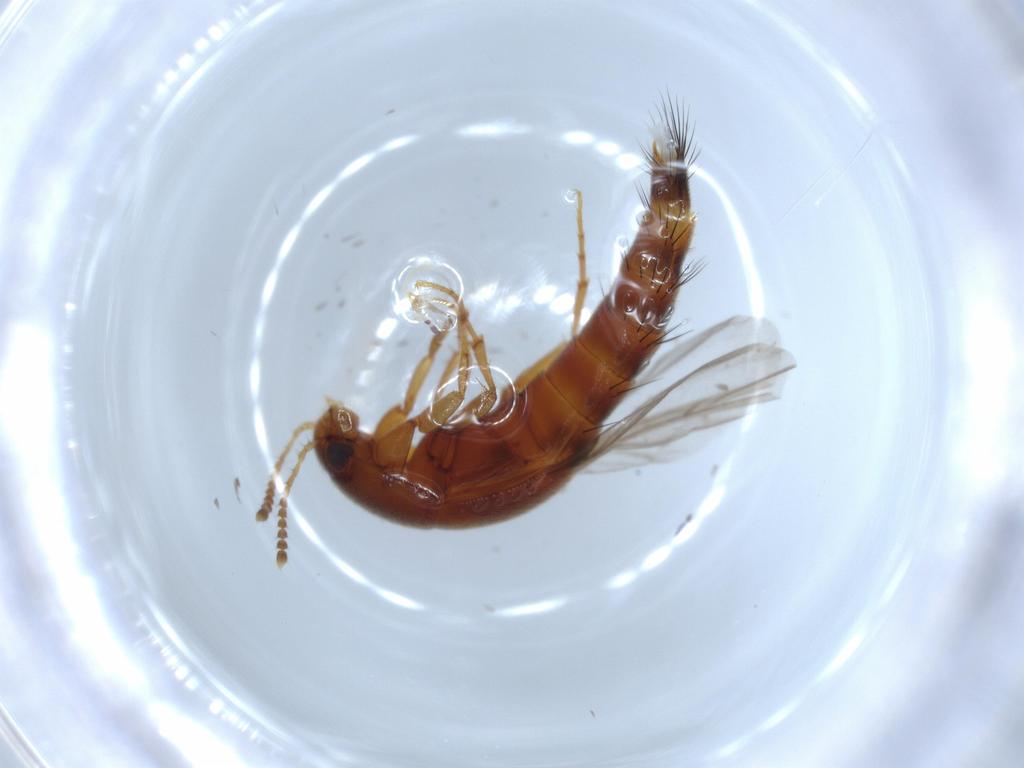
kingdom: Animalia
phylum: Arthropoda
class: Insecta
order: Coleoptera
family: Staphylinidae
